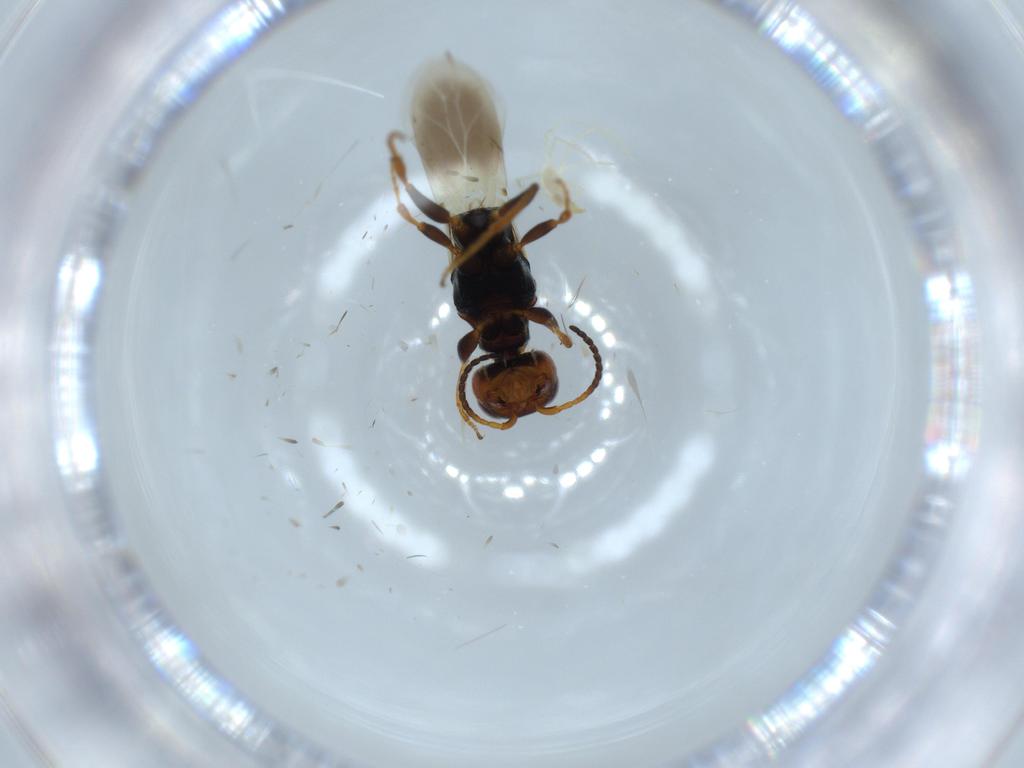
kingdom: Animalia
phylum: Arthropoda
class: Insecta
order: Hymenoptera
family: Bethylidae
